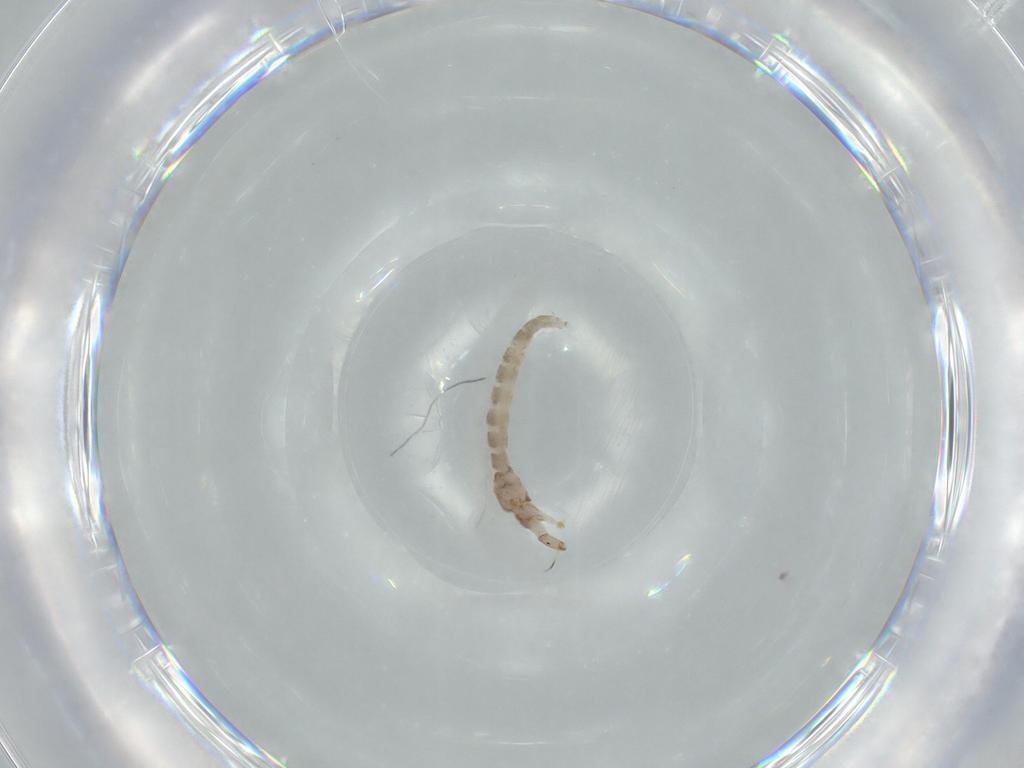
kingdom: Animalia
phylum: Arthropoda
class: Insecta
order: Diptera
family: Chironomidae
